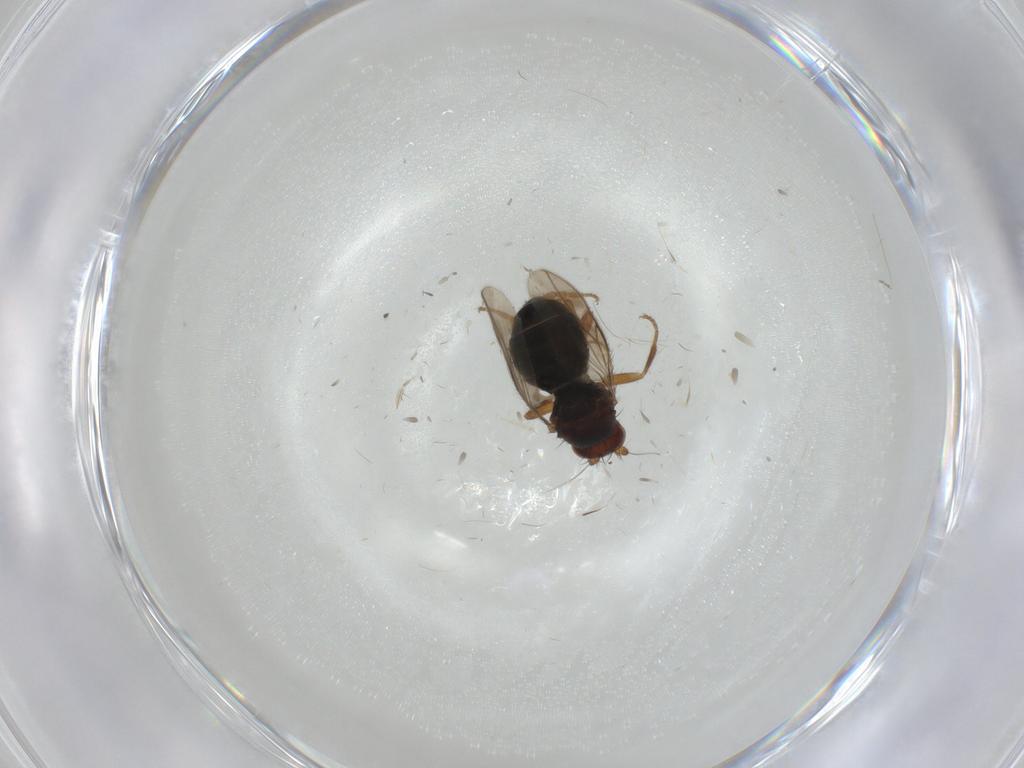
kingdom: Animalia
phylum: Arthropoda
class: Insecta
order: Diptera
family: Sphaeroceridae
